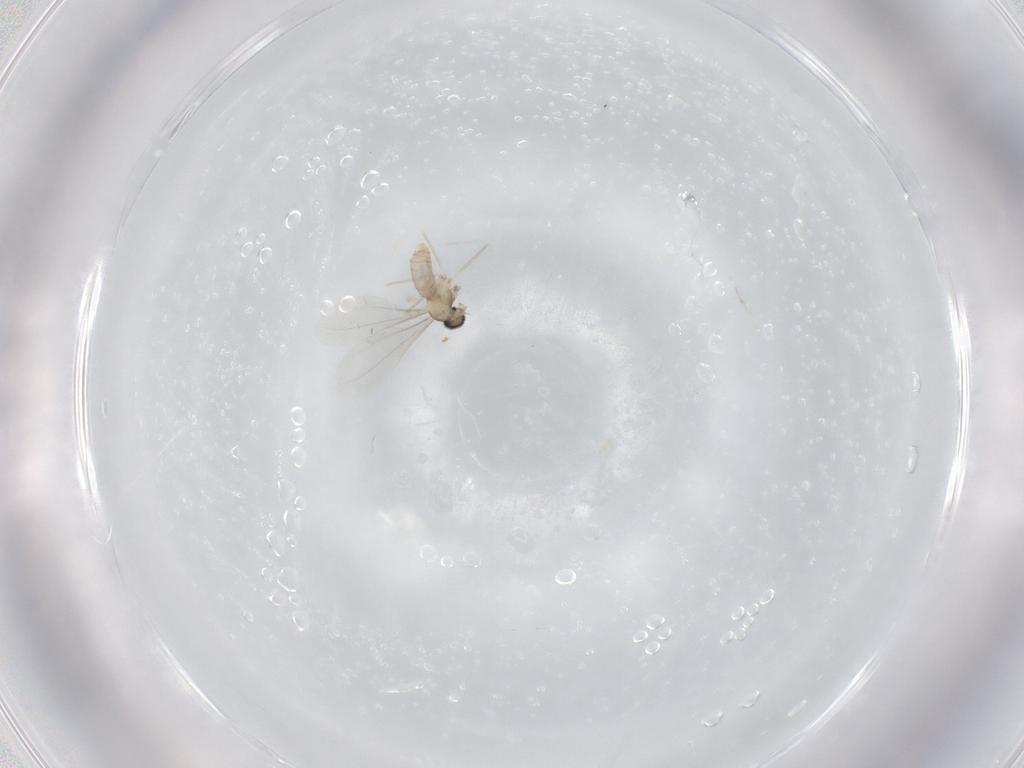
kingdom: Animalia
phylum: Arthropoda
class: Insecta
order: Diptera
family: Cecidomyiidae
